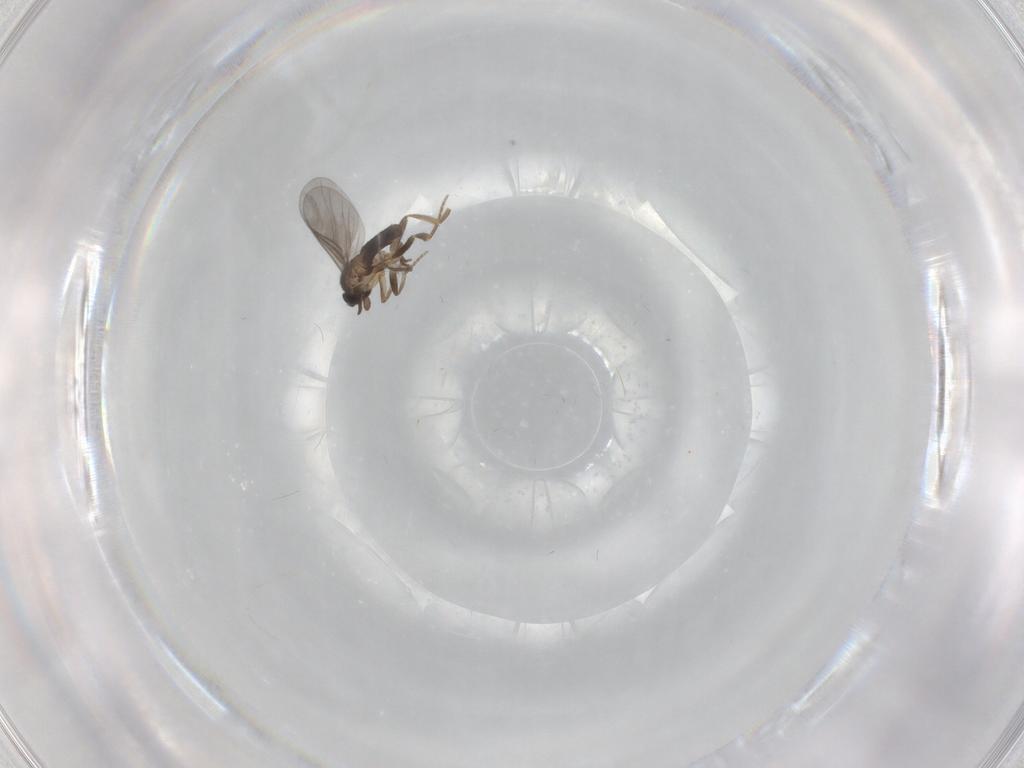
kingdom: Animalia
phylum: Arthropoda
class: Insecta
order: Diptera
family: Ceratopogonidae
